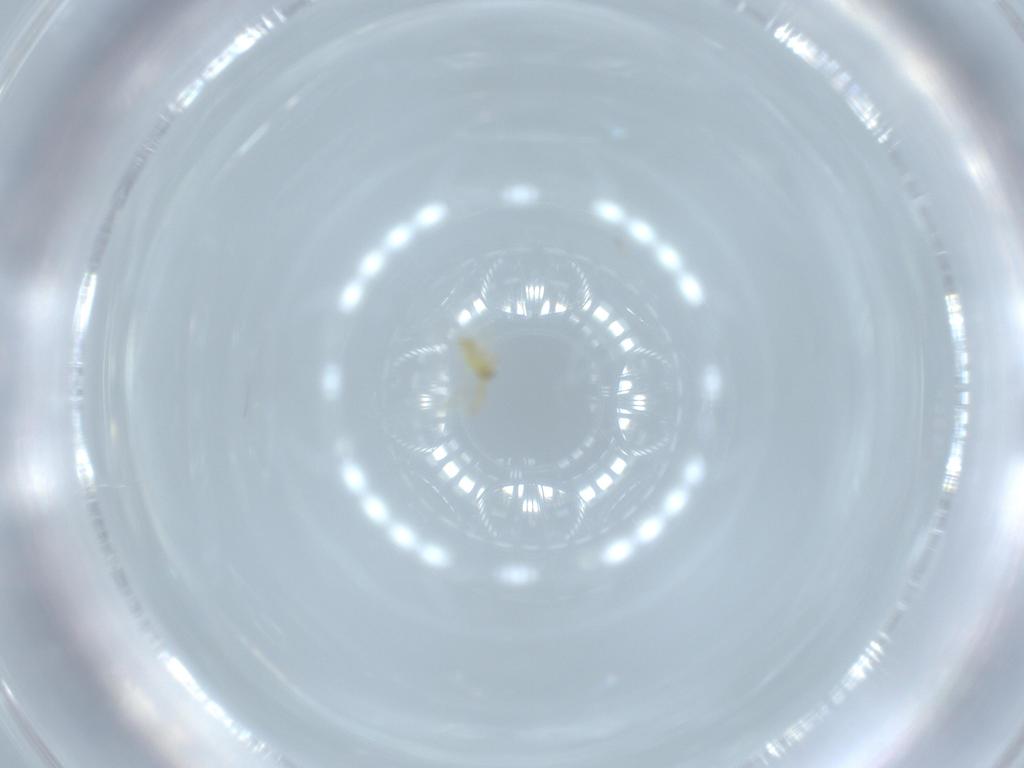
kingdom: Animalia
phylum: Arthropoda
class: Insecta
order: Hymenoptera
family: Aphelinidae
